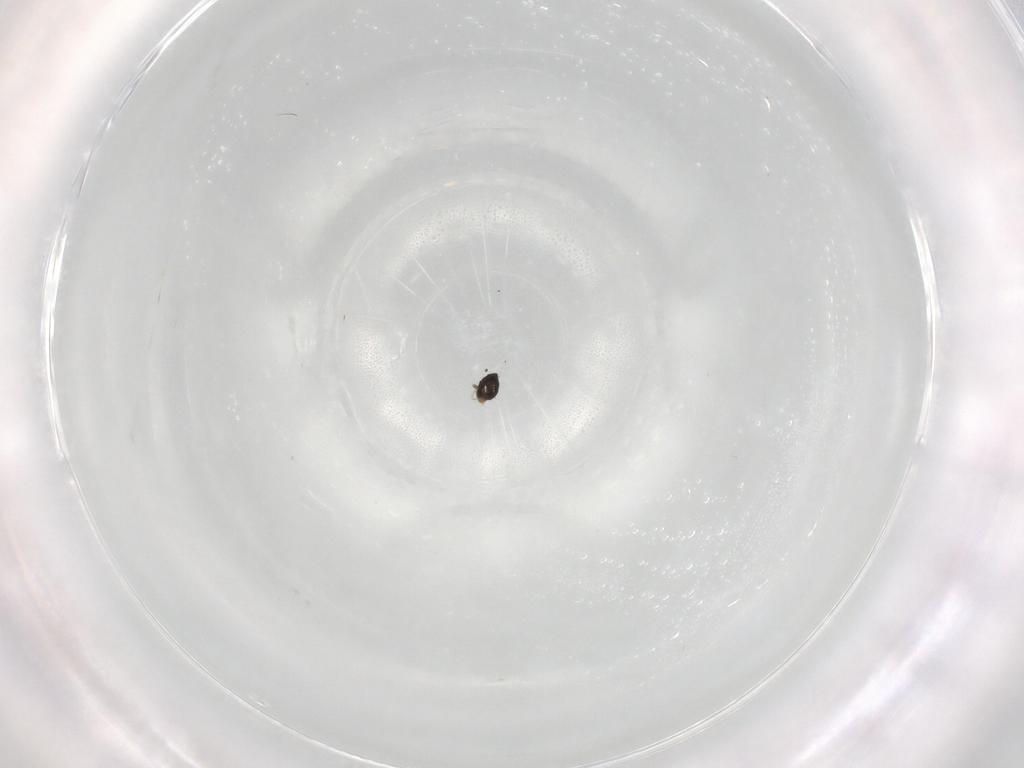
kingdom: Animalia
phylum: Arthropoda
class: Insecta
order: Diptera
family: Cecidomyiidae
